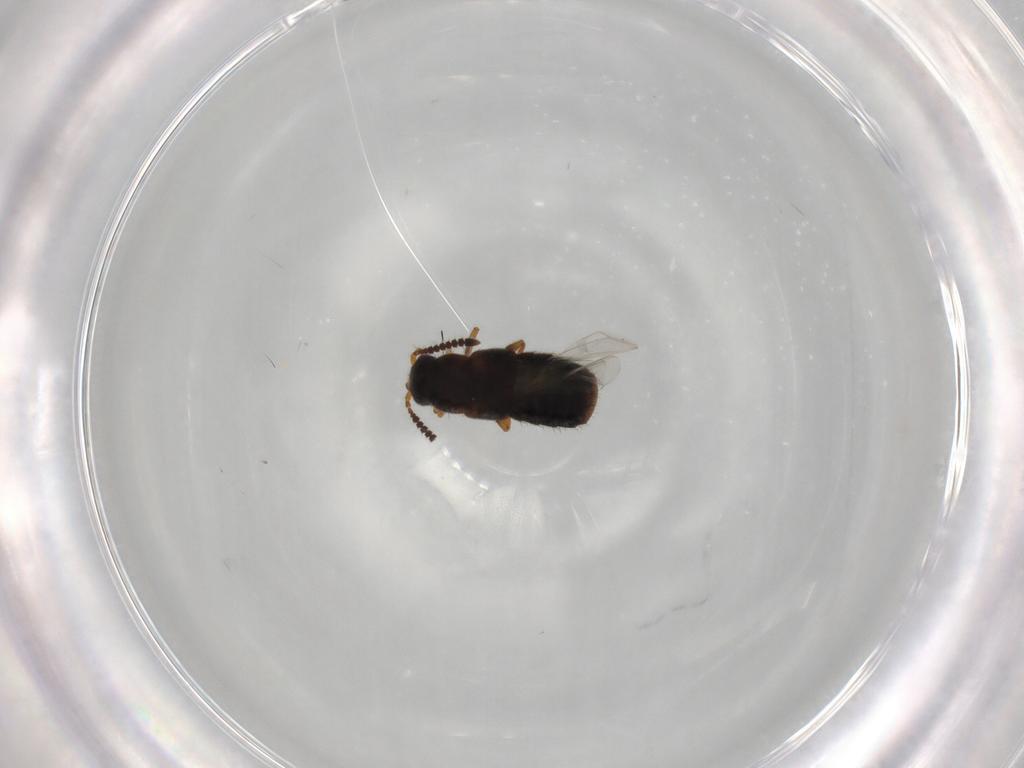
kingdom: Animalia
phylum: Arthropoda
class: Insecta
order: Coleoptera
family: Staphylinidae
